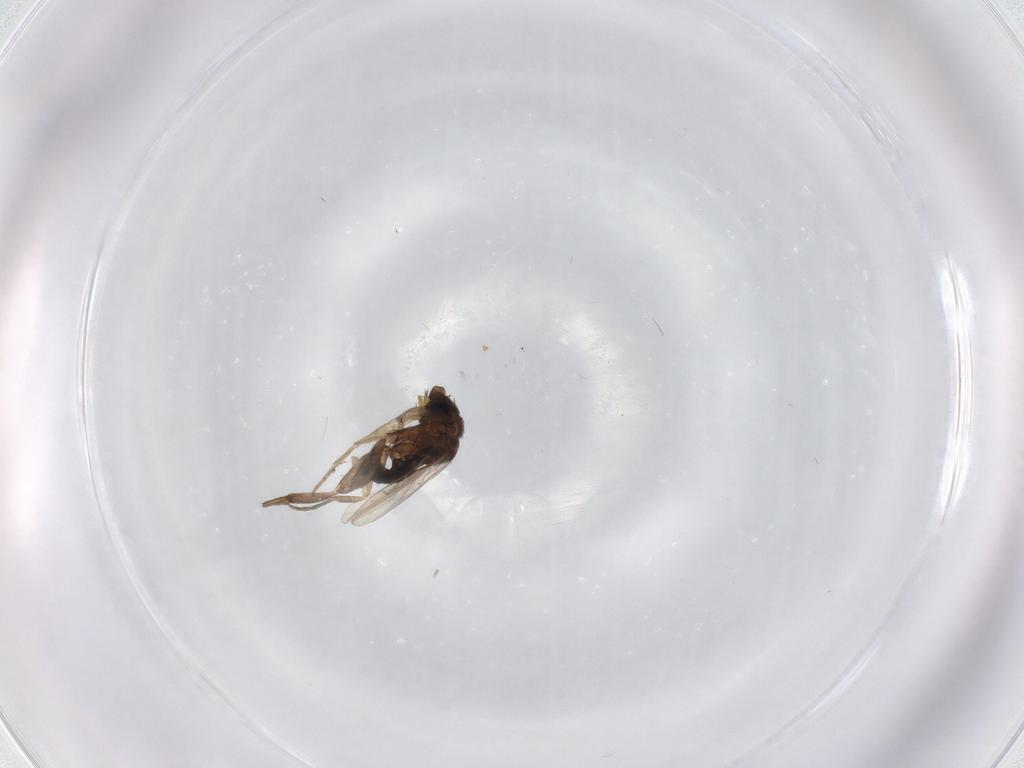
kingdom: Animalia
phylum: Arthropoda
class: Insecta
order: Diptera
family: Phoridae
